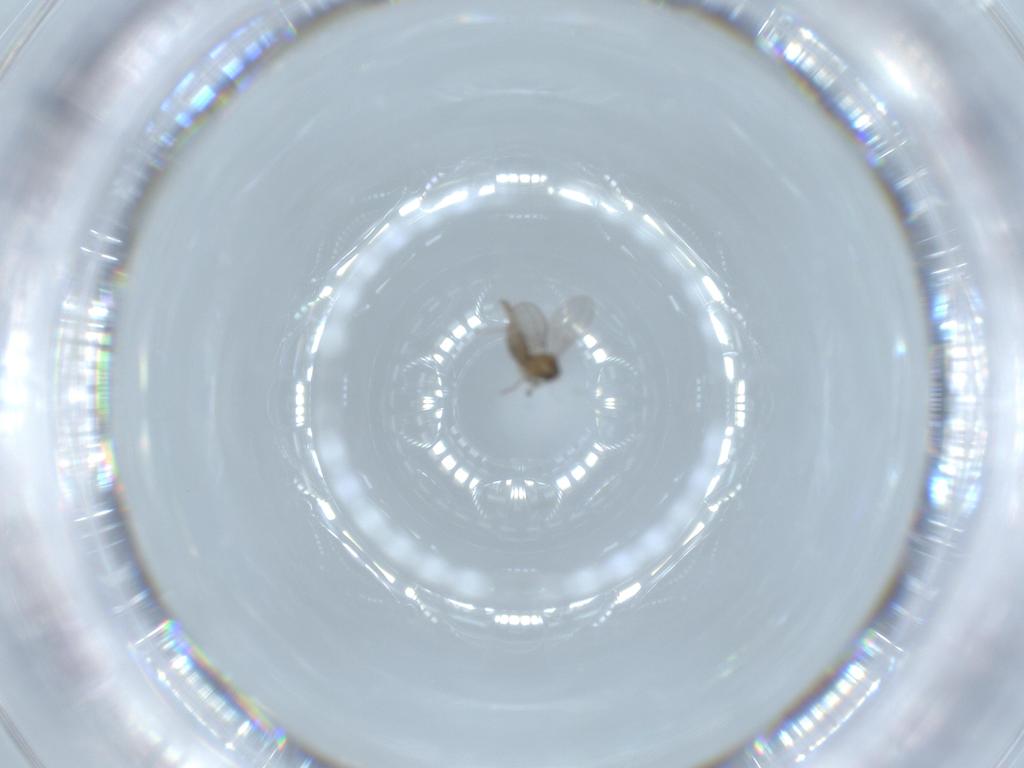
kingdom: Animalia
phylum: Arthropoda
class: Insecta
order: Diptera
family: Cecidomyiidae
